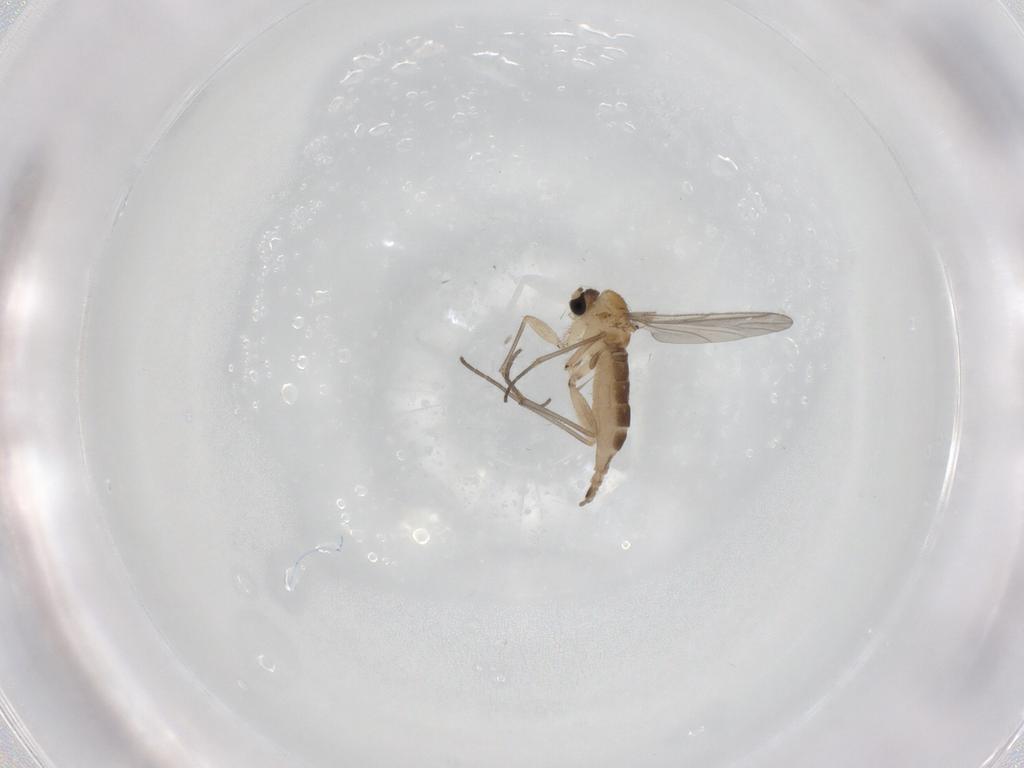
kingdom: Animalia
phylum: Arthropoda
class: Insecta
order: Diptera
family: Sciaridae
